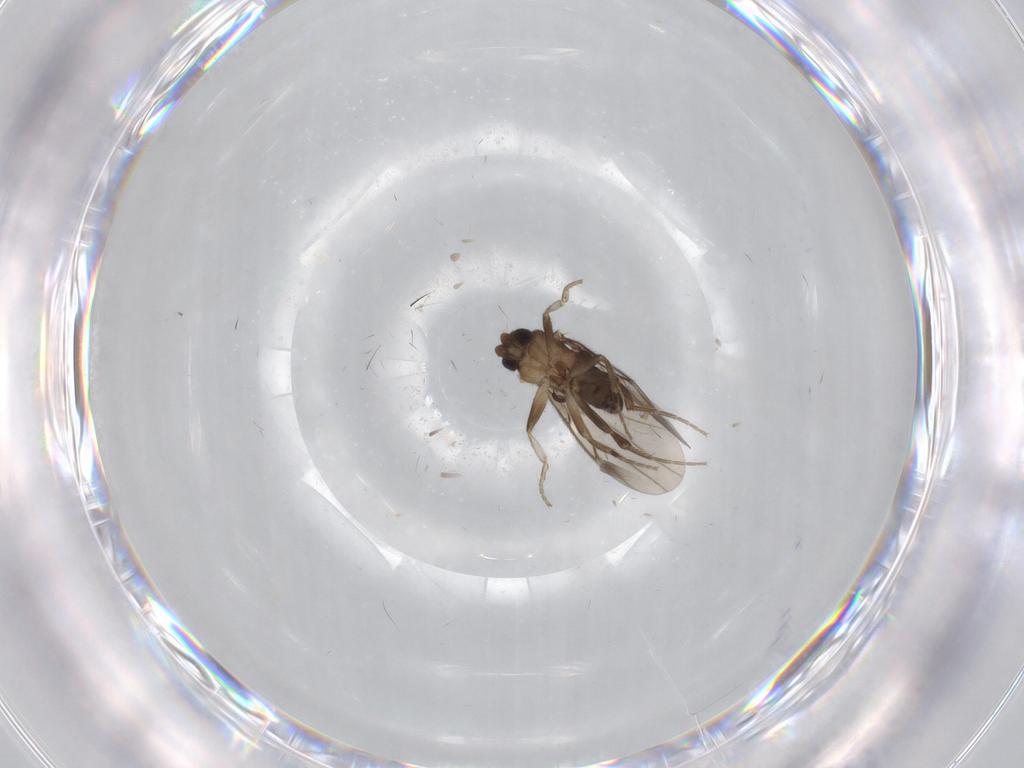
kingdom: Animalia
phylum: Arthropoda
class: Insecta
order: Diptera
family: Cecidomyiidae
